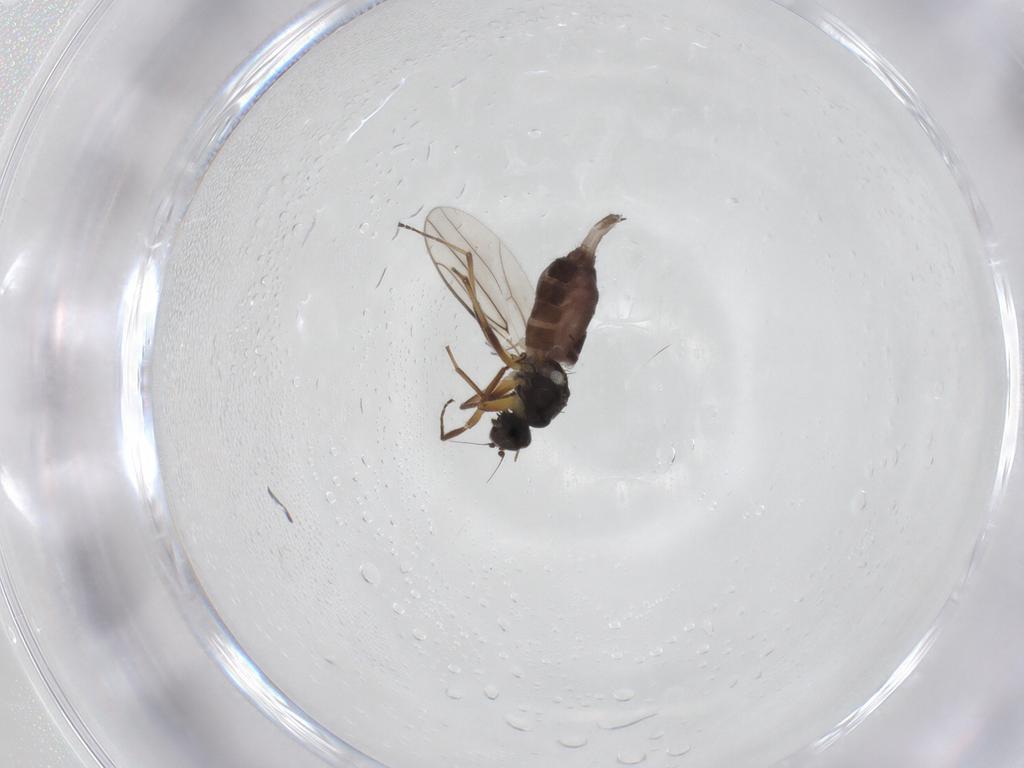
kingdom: Animalia
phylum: Arthropoda
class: Insecta
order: Diptera
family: Hybotidae
